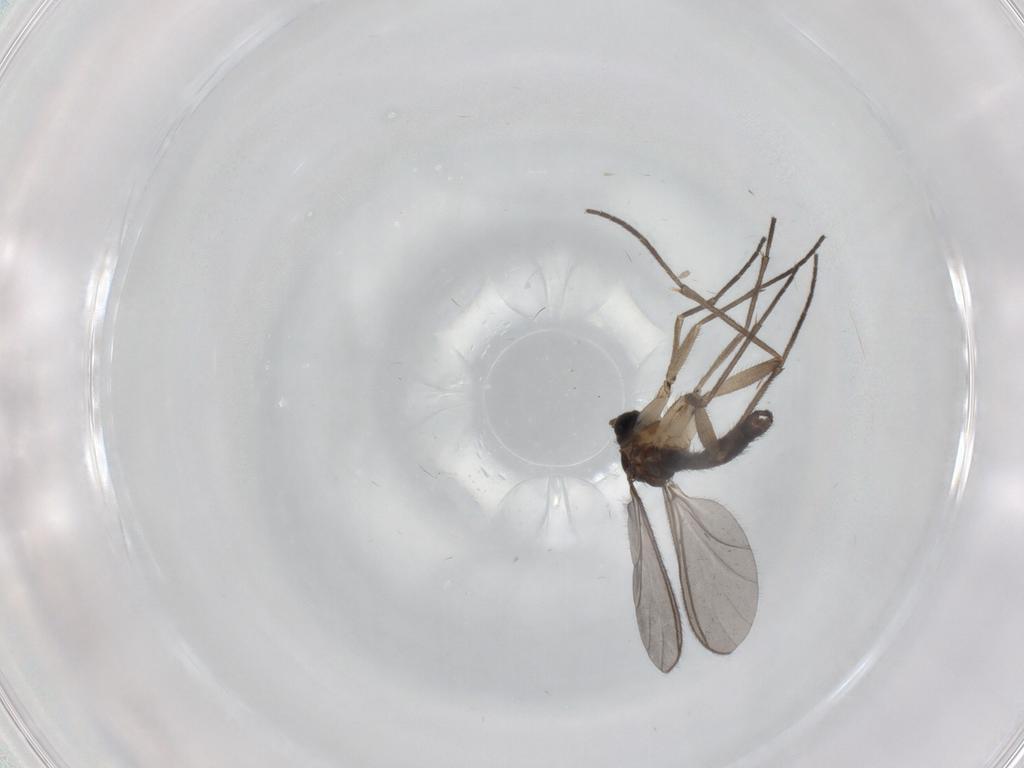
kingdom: Animalia
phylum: Arthropoda
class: Insecta
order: Diptera
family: Sciaridae
